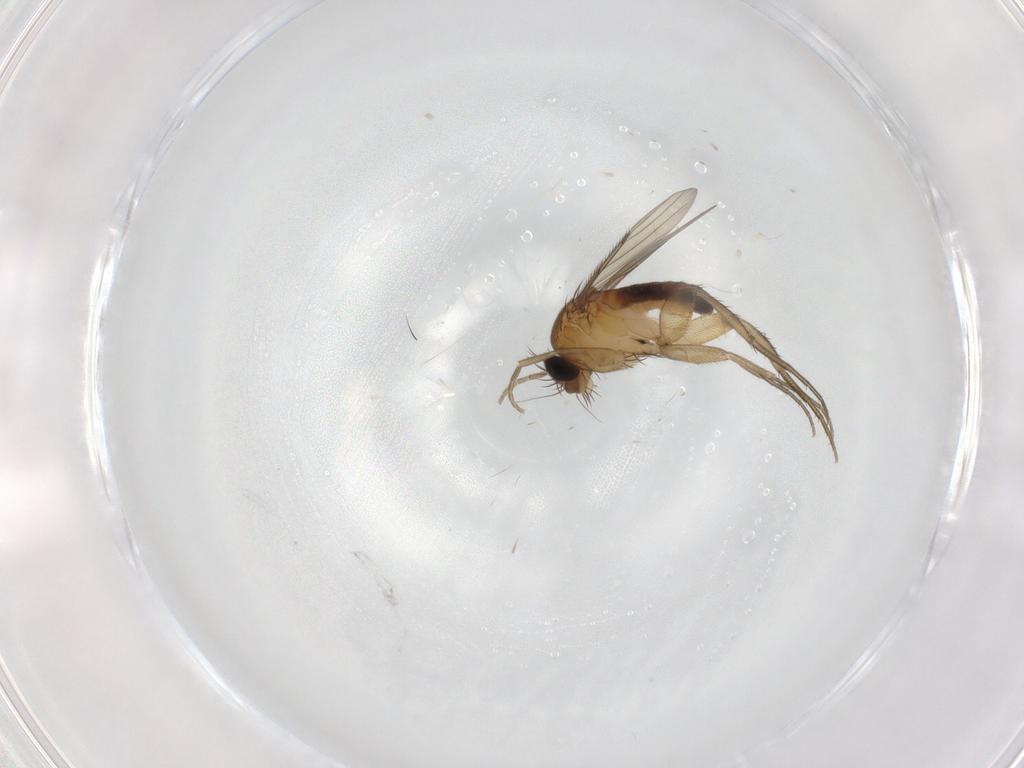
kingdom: Animalia
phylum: Arthropoda
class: Insecta
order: Diptera
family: Phoridae
